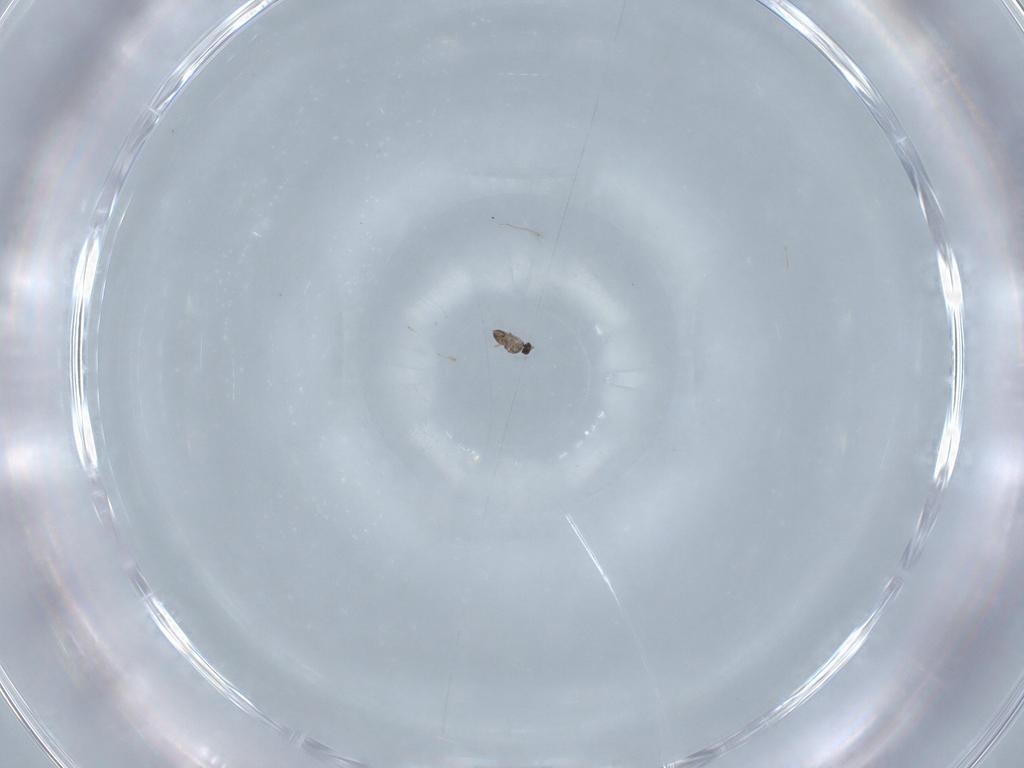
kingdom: Animalia
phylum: Arthropoda
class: Insecta
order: Hymenoptera
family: Mymaridae
